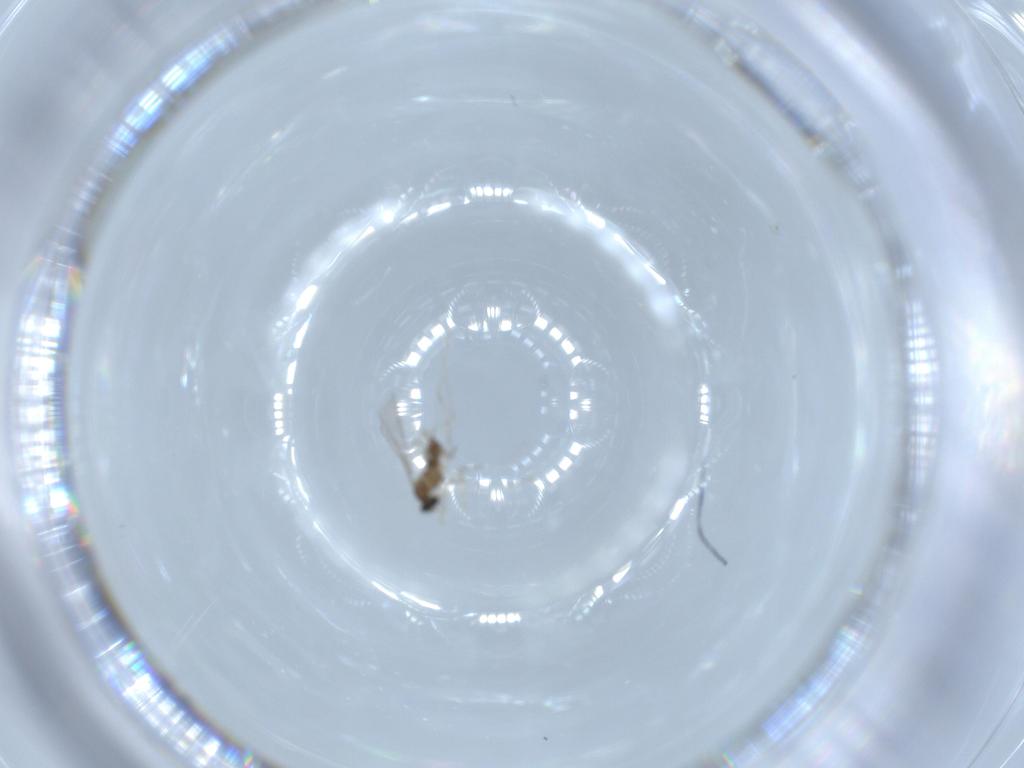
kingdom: Animalia
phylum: Arthropoda
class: Insecta
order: Diptera
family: Cecidomyiidae
